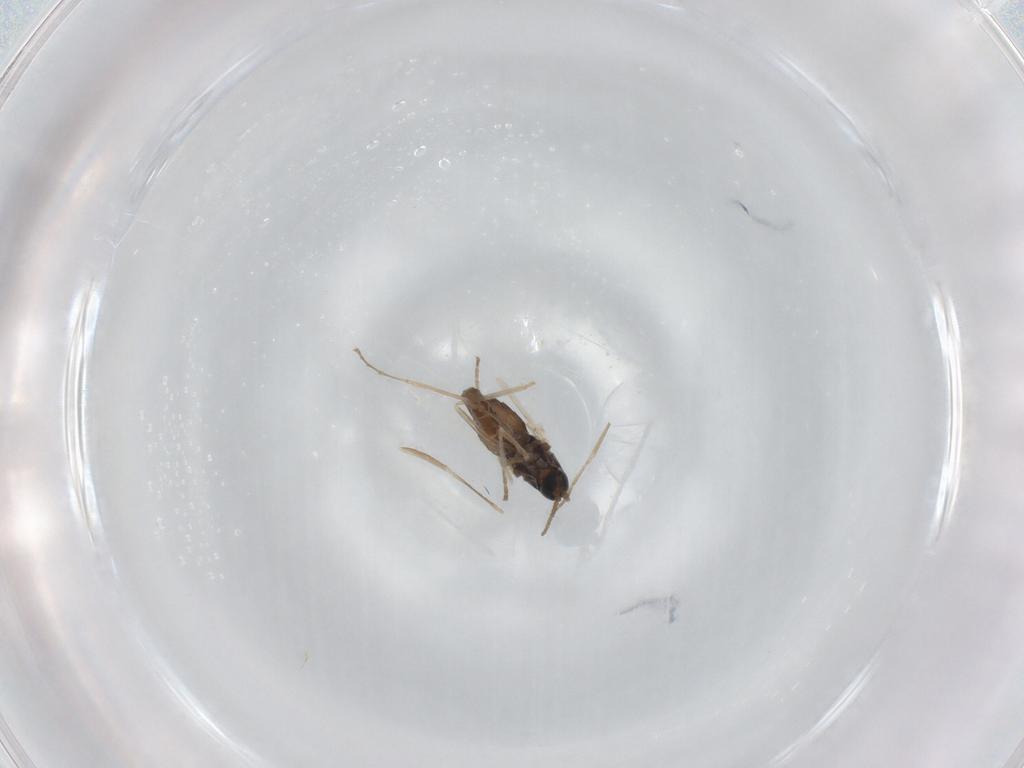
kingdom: Animalia
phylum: Arthropoda
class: Insecta
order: Diptera
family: Cecidomyiidae
